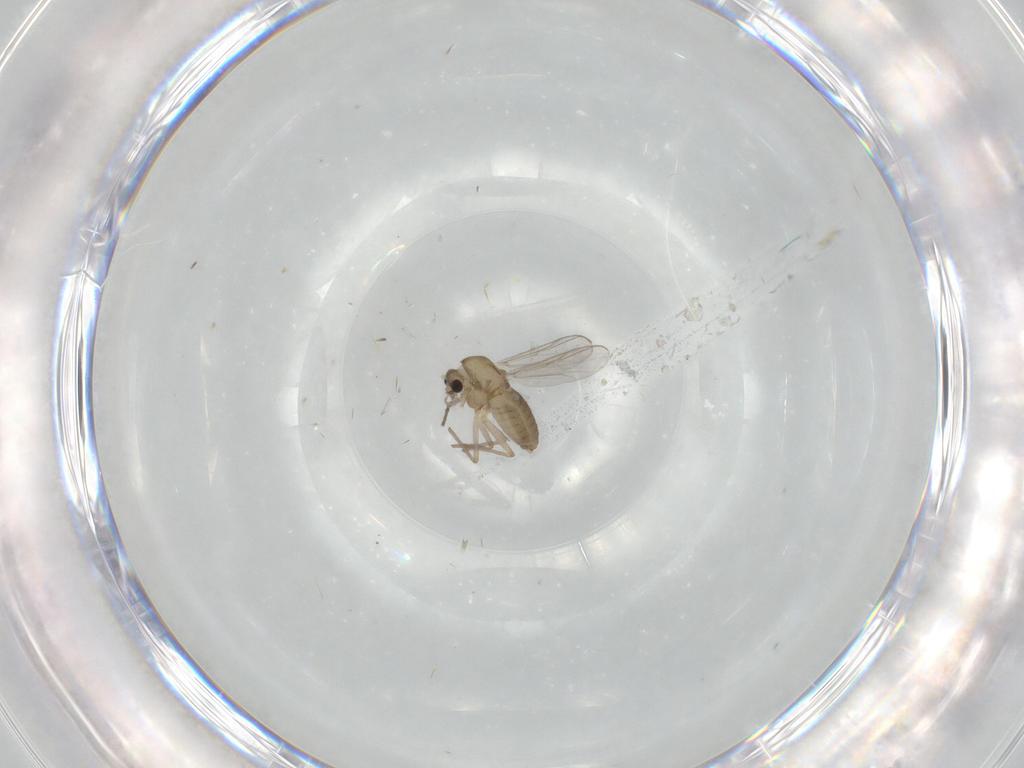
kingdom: Animalia
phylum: Arthropoda
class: Insecta
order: Diptera
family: Chironomidae
